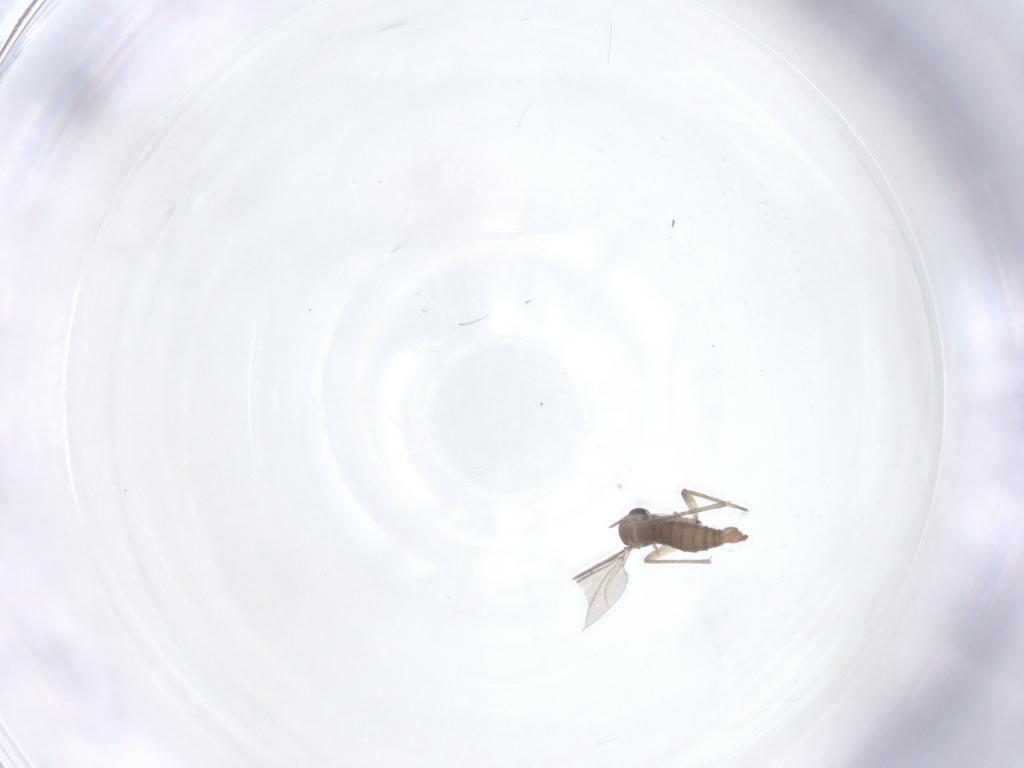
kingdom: Animalia
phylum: Arthropoda
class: Insecta
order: Diptera
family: Sciaridae
